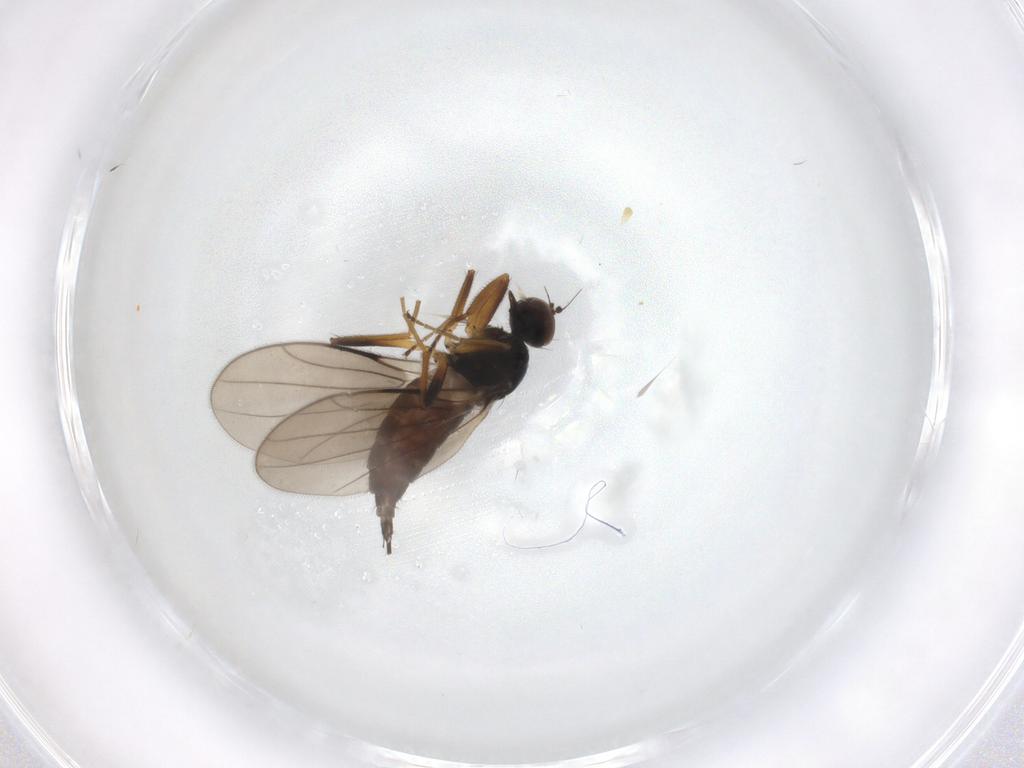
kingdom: Animalia
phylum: Arthropoda
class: Insecta
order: Diptera
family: Hybotidae
